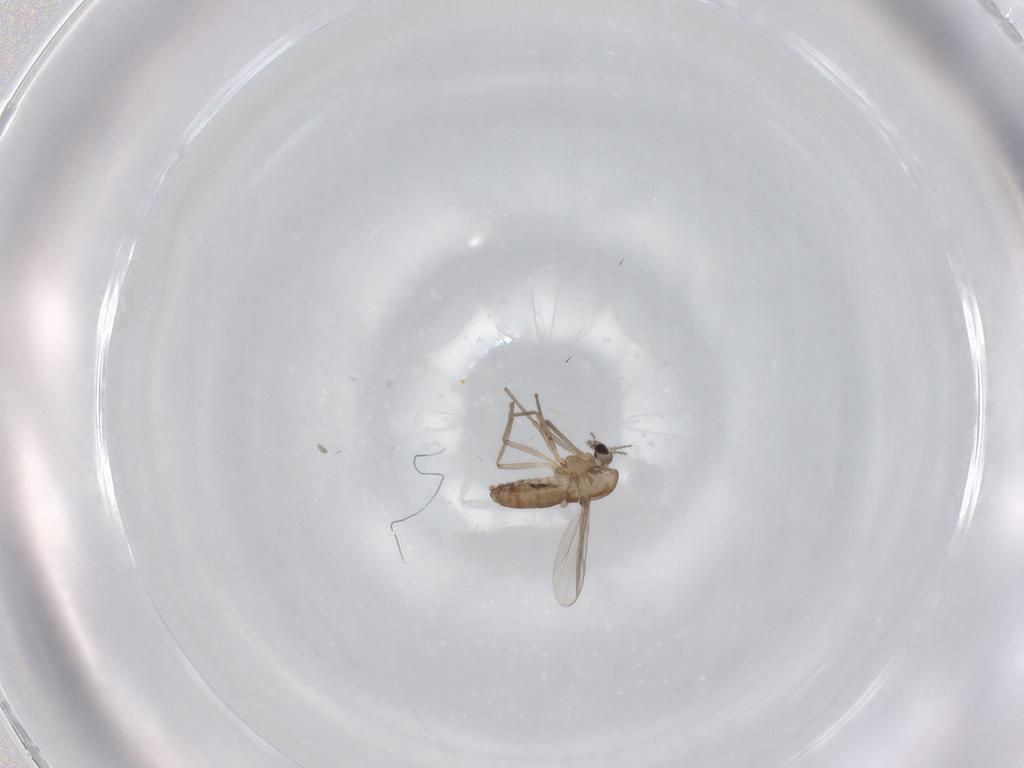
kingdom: Animalia
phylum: Arthropoda
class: Insecta
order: Diptera
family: Chironomidae
